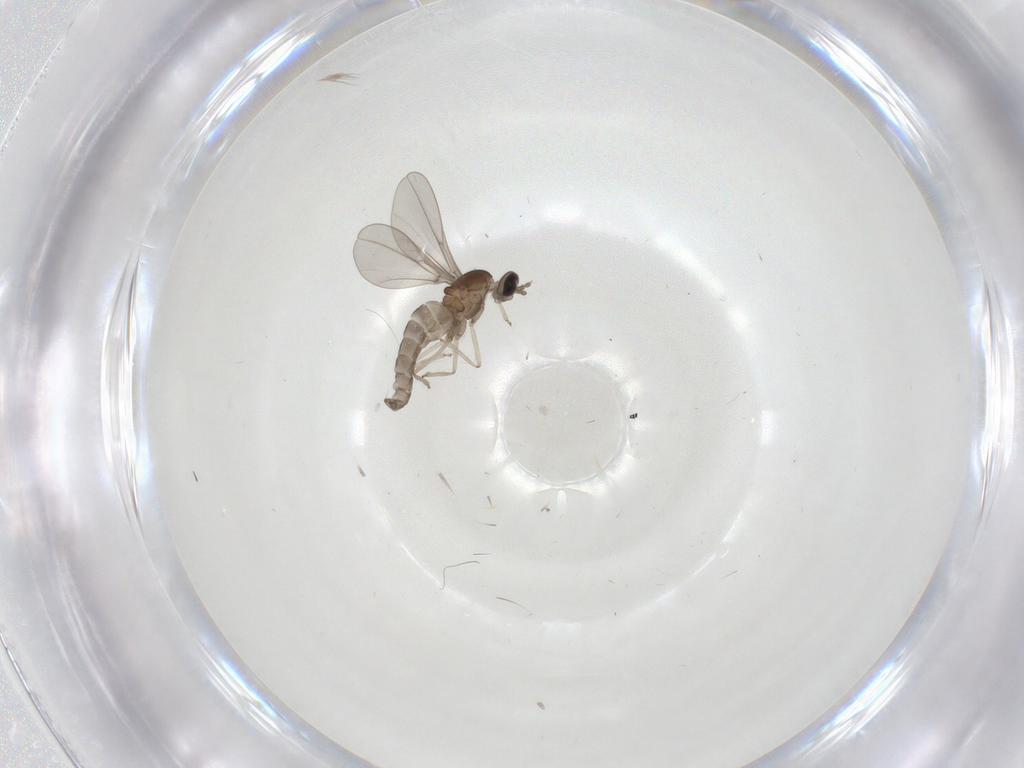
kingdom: Animalia
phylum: Arthropoda
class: Insecta
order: Diptera
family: Cecidomyiidae
